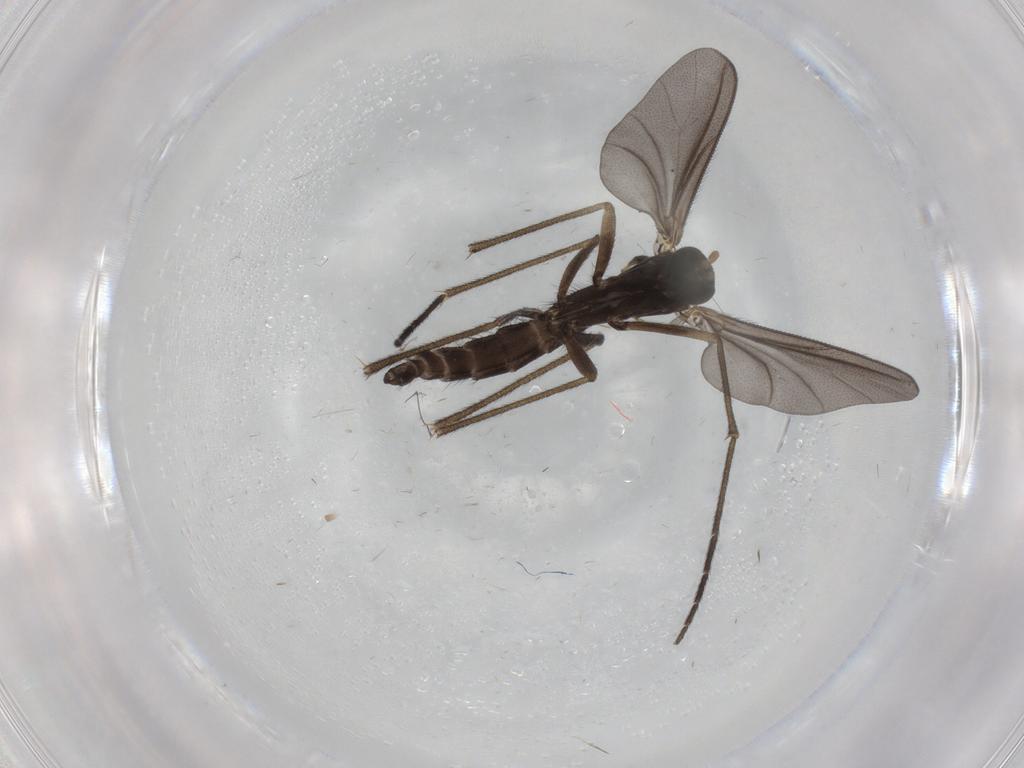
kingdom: Animalia
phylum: Arthropoda
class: Insecta
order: Diptera
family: Sciaridae
